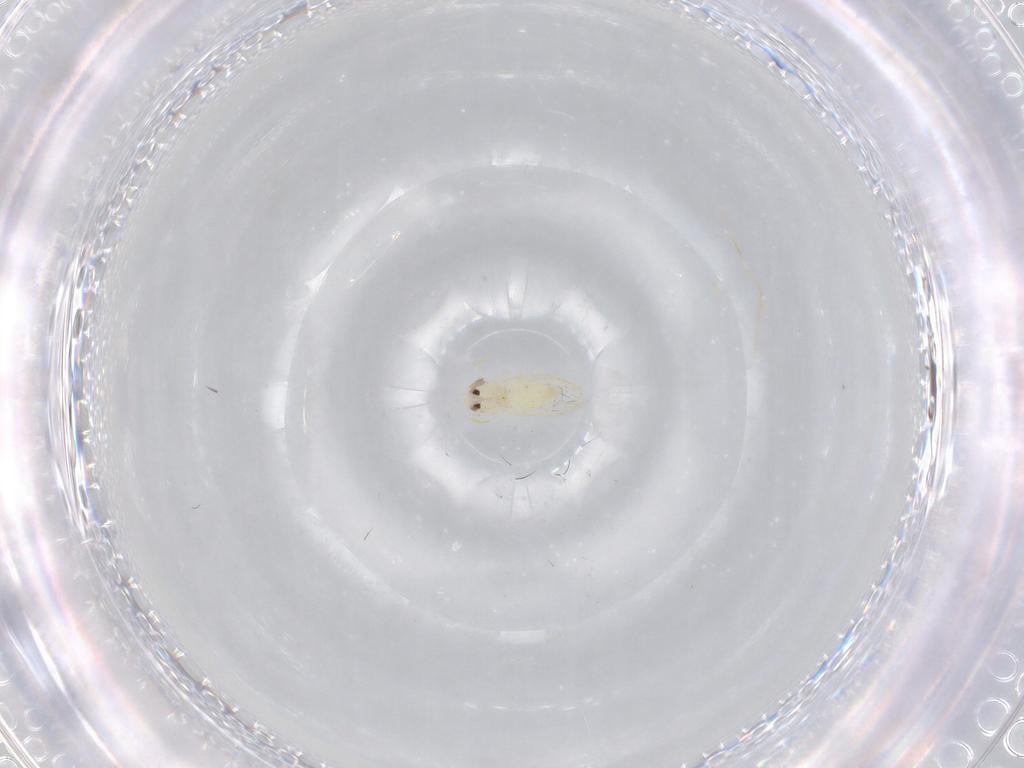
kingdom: Animalia
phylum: Arthropoda
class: Insecta
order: Hemiptera
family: Aleyrodidae
